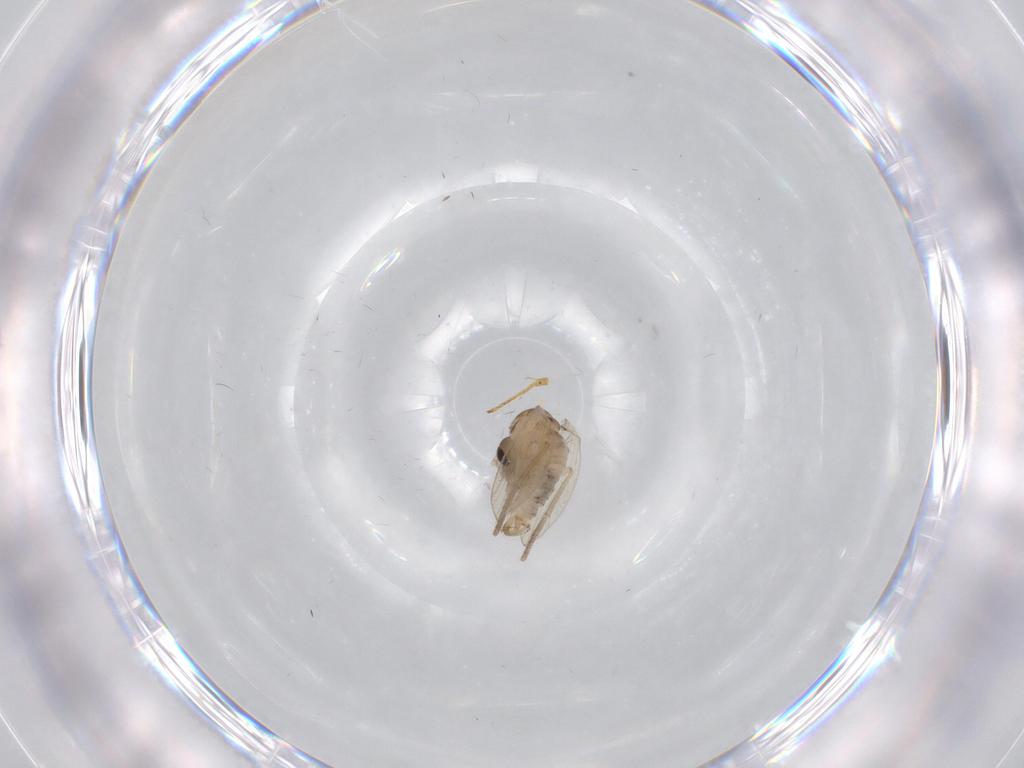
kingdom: Animalia
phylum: Arthropoda
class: Insecta
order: Diptera
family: Psychodidae
